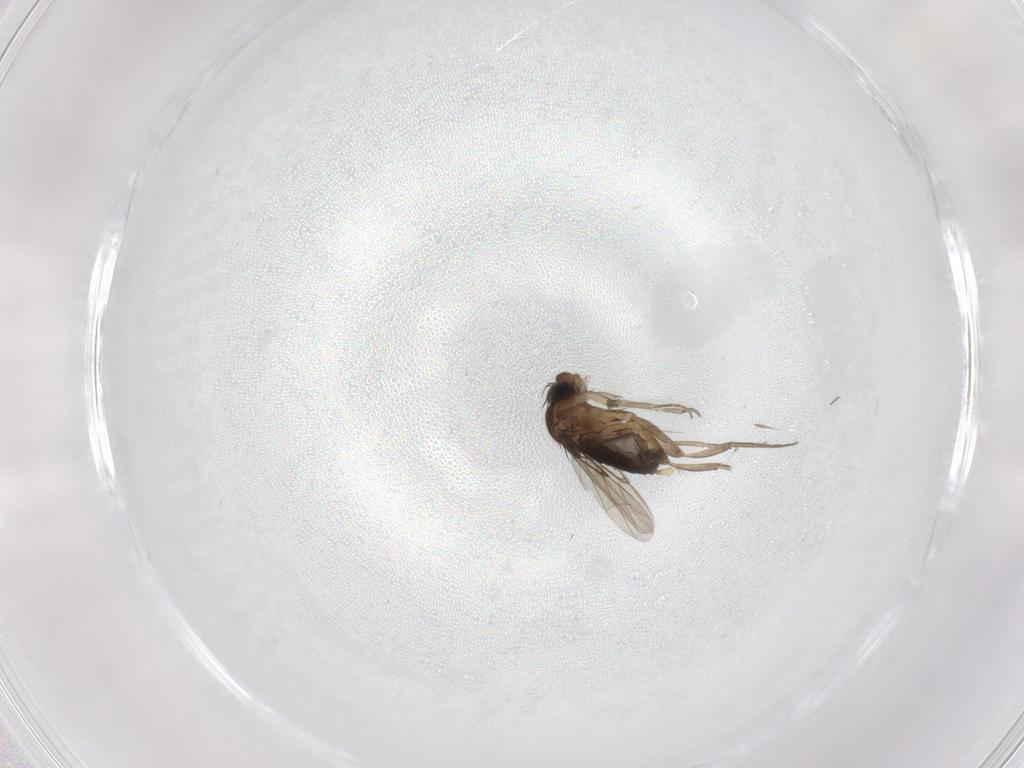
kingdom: Animalia
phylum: Arthropoda
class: Insecta
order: Diptera
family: Phoridae
